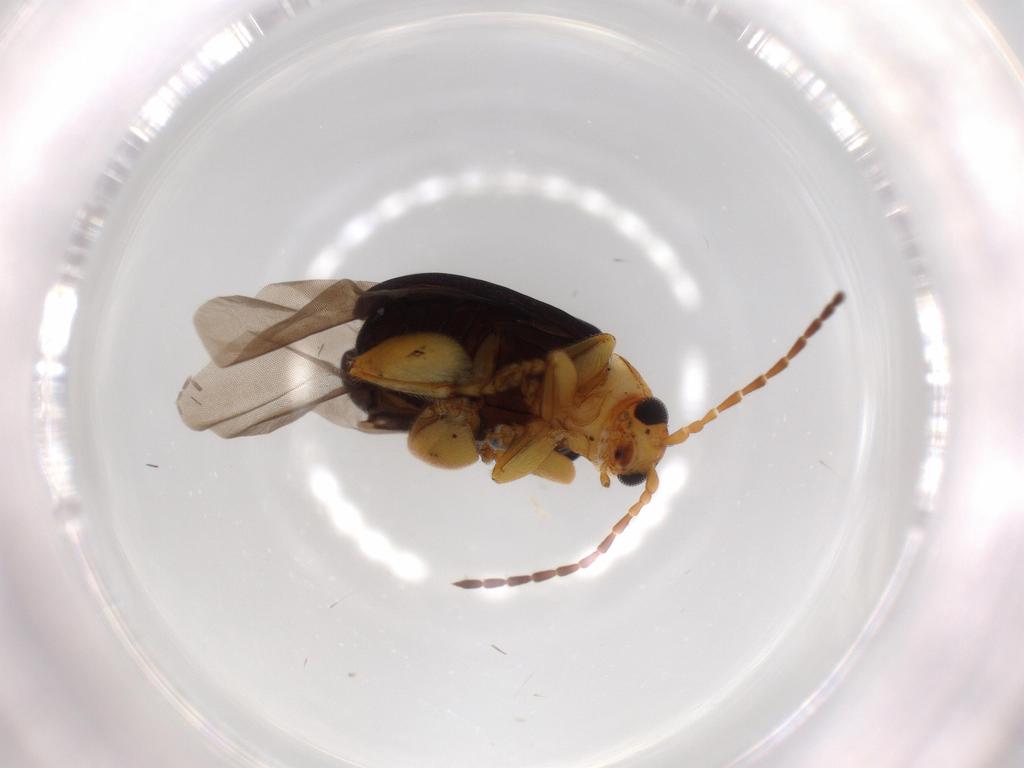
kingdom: Animalia
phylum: Arthropoda
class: Insecta
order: Coleoptera
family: Chrysomelidae
